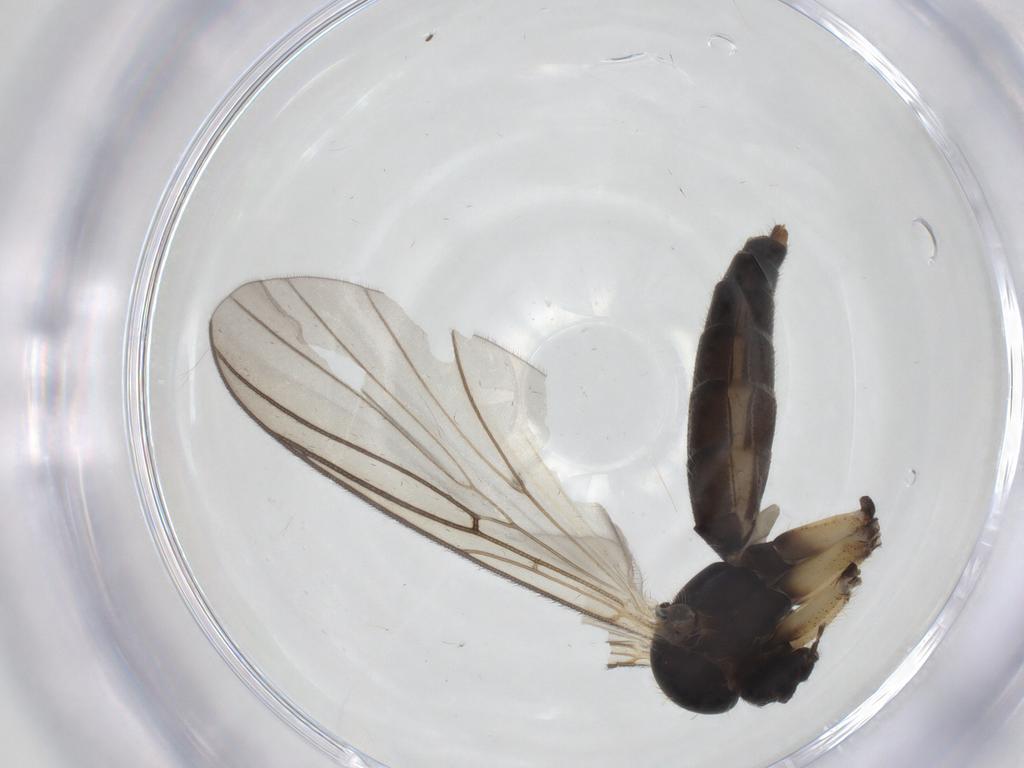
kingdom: Animalia
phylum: Arthropoda
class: Insecta
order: Diptera
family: Mycetophilidae
